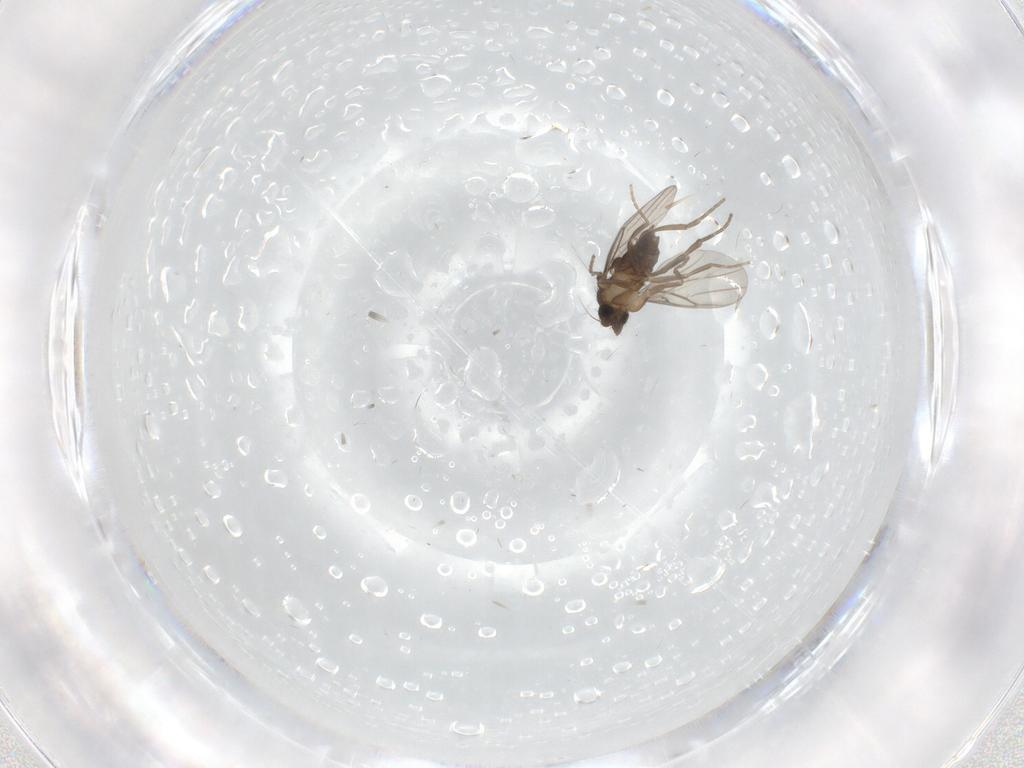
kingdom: Animalia
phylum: Arthropoda
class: Insecta
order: Diptera
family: Cecidomyiidae
